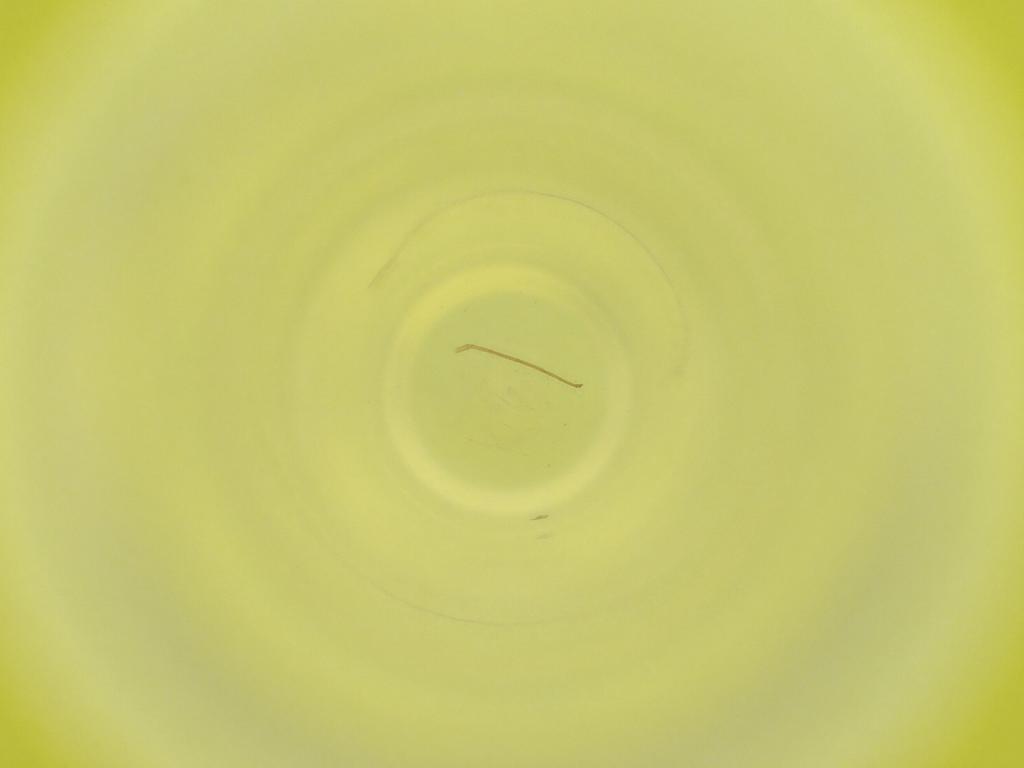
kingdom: Animalia
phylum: Arthropoda
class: Insecta
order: Diptera
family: Cecidomyiidae
